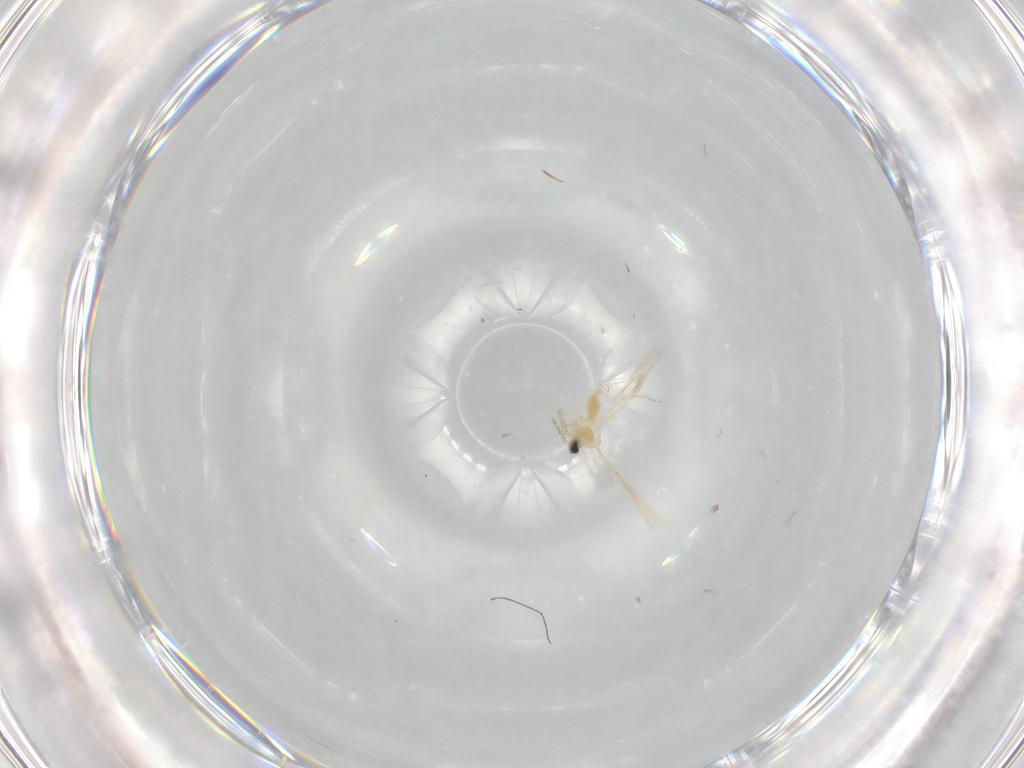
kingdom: Animalia
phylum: Arthropoda
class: Insecta
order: Diptera
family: Cecidomyiidae
